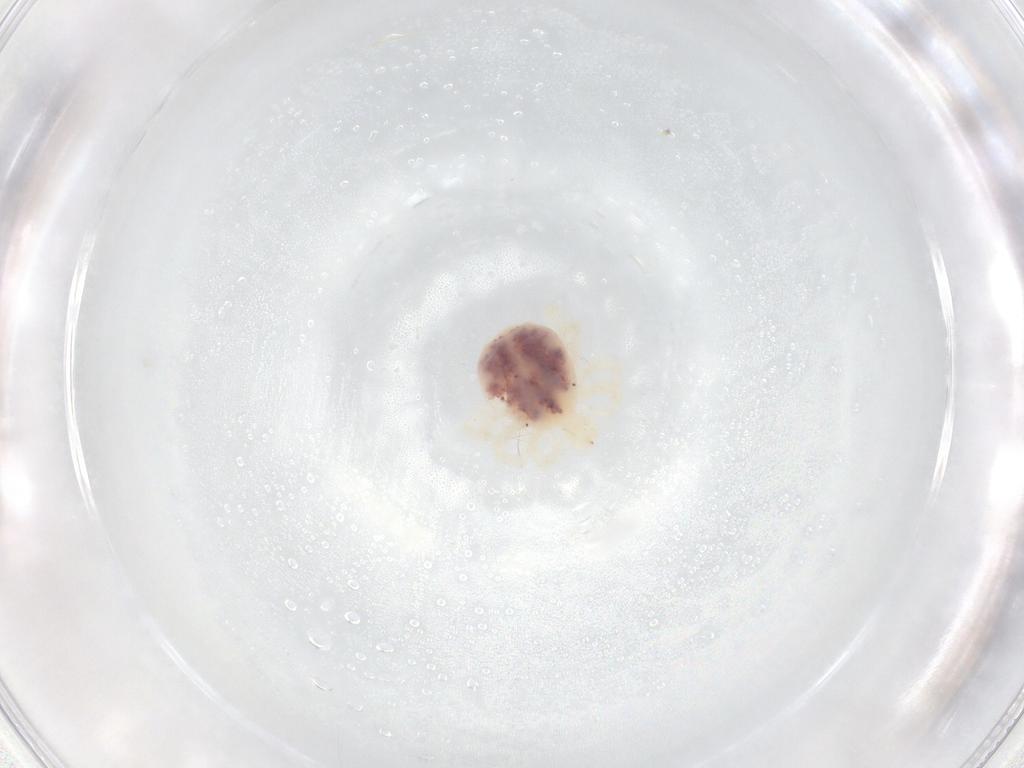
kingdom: Animalia
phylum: Arthropoda
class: Arachnida
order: Trombidiformes
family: Anystidae
